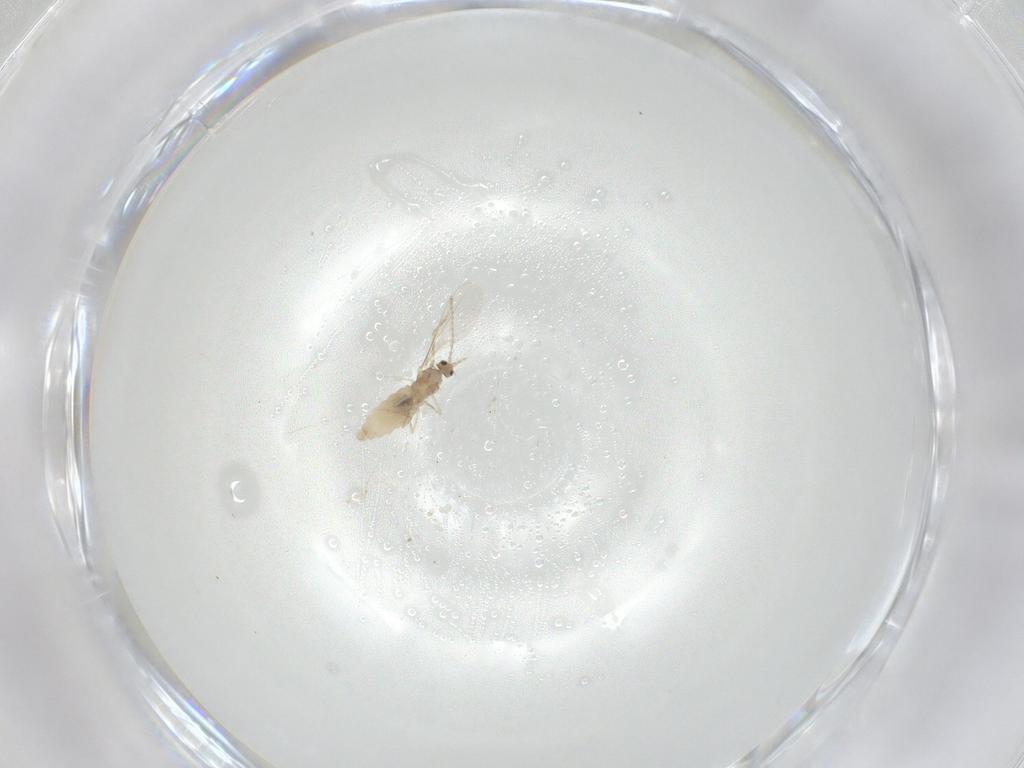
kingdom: Animalia
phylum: Arthropoda
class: Insecta
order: Diptera
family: Cecidomyiidae
